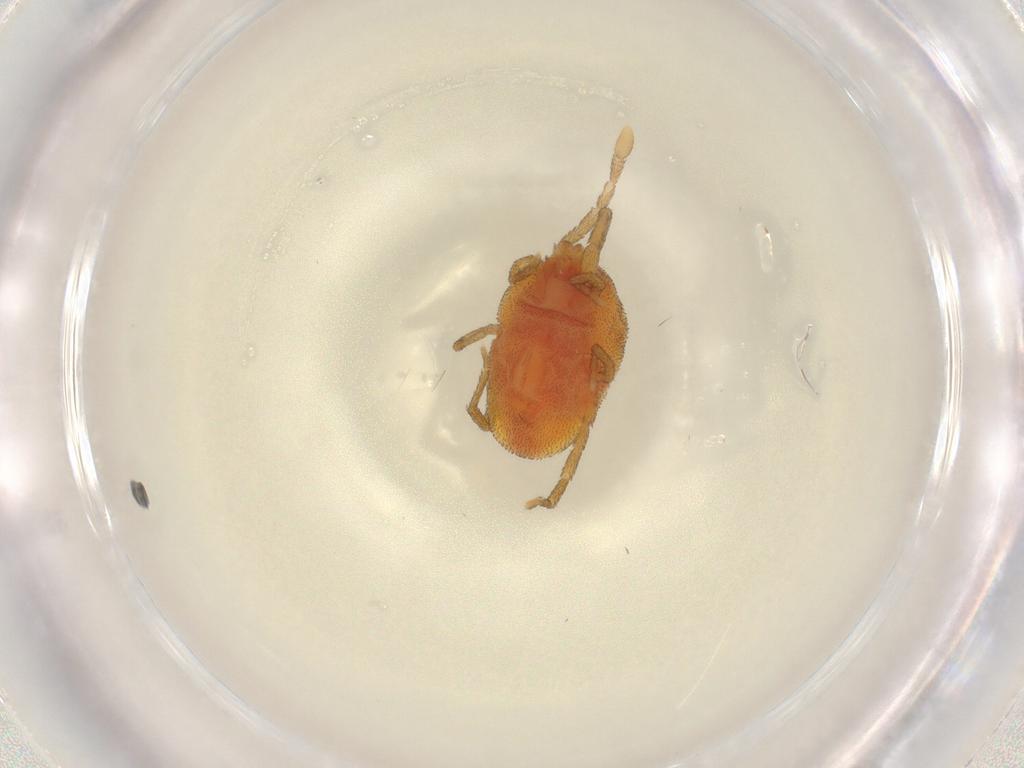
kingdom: Animalia
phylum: Arthropoda
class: Arachnida
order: Trombidiformes
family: Erythraeidae
